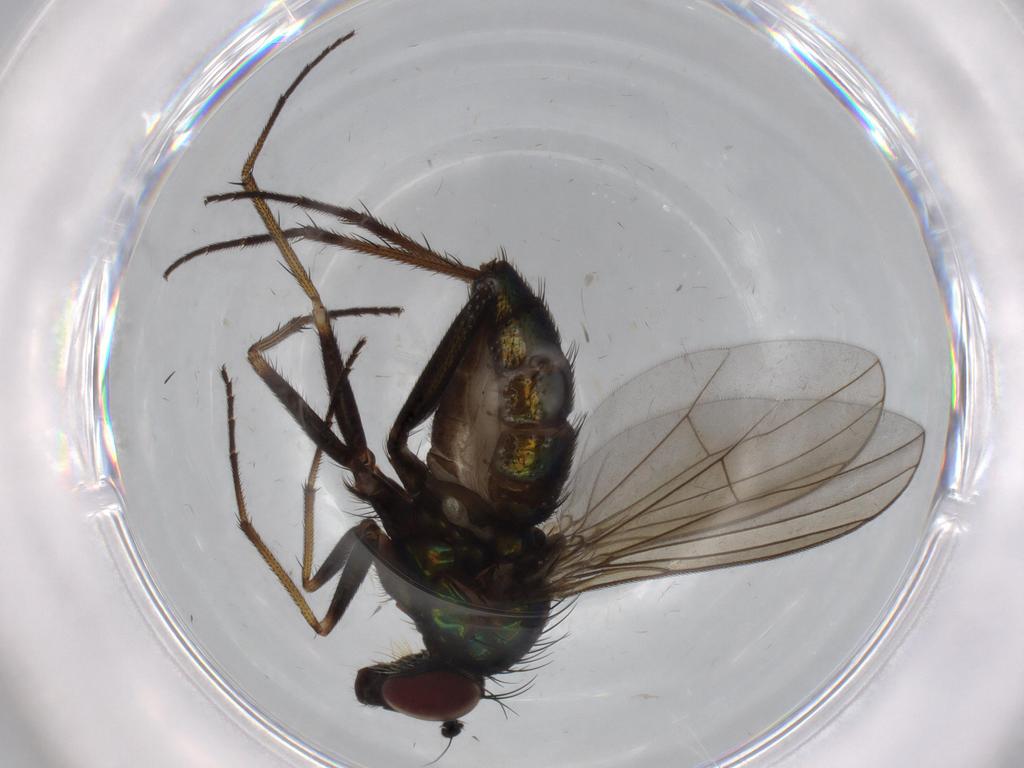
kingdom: Animalia
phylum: Arthropoda
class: Insecta
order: Diptera
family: Dolichopodidae
